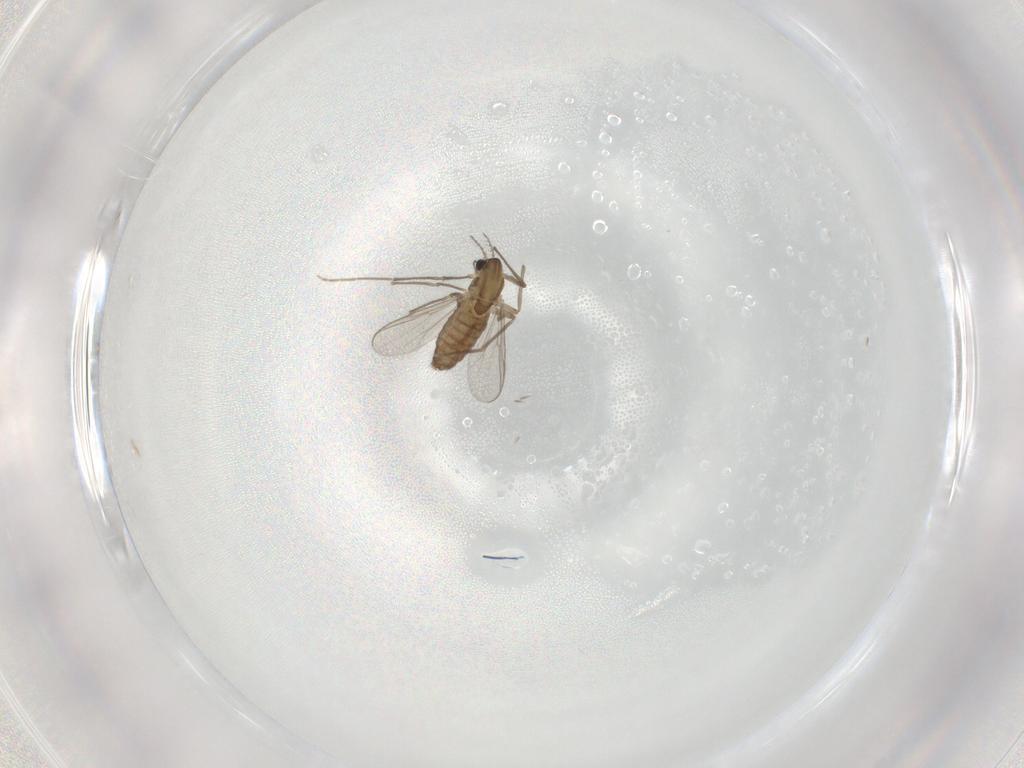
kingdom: Animalia
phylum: Arthropoda
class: Insecta
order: Diptera
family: Chironomidae
